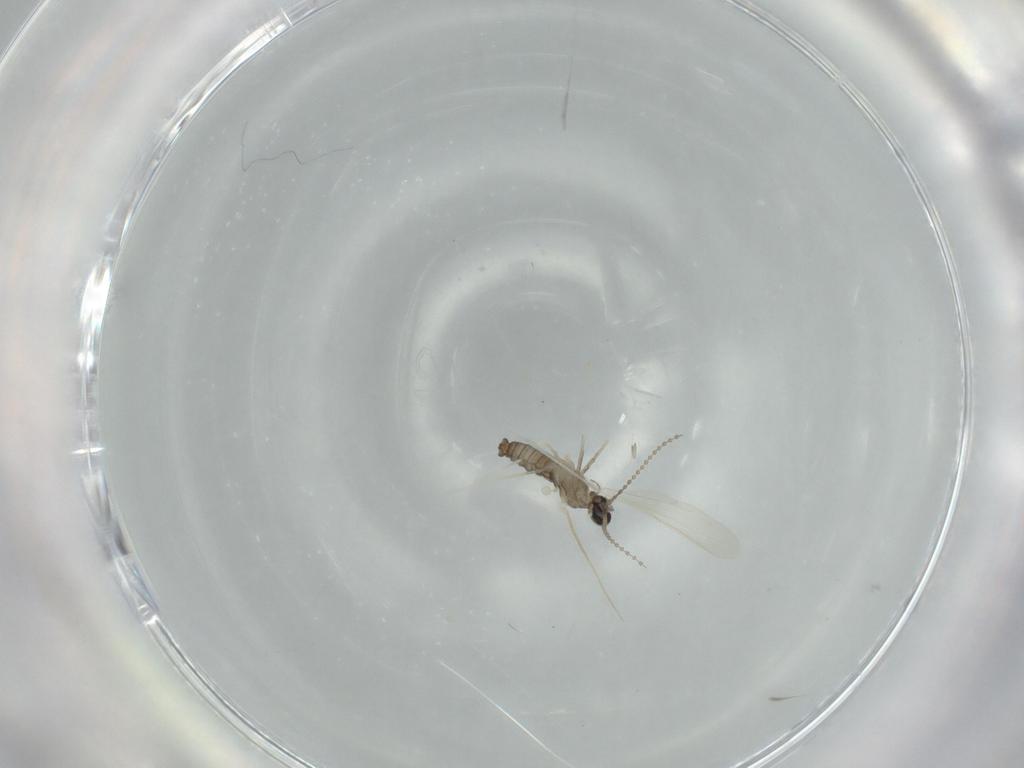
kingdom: Animalia
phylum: Arthropoda
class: Insecta
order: Diptera
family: Cecidomyiidae
